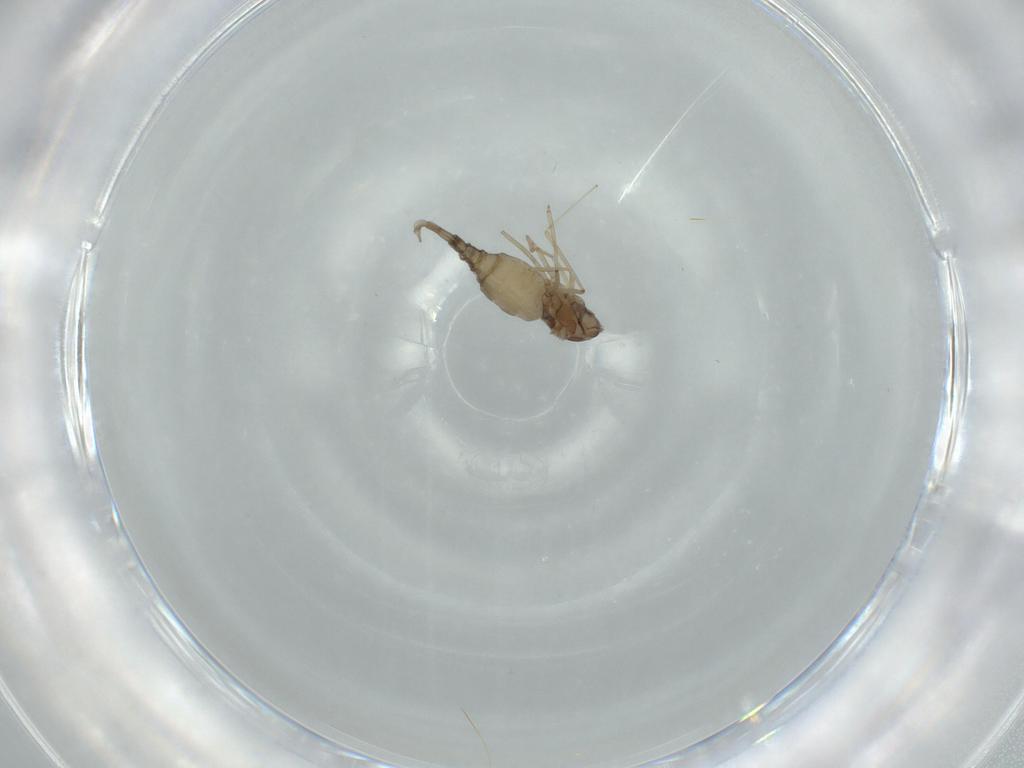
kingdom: Animalia
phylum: Arthropoda
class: Insecta
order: Diptera
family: Cecidomyiidae
